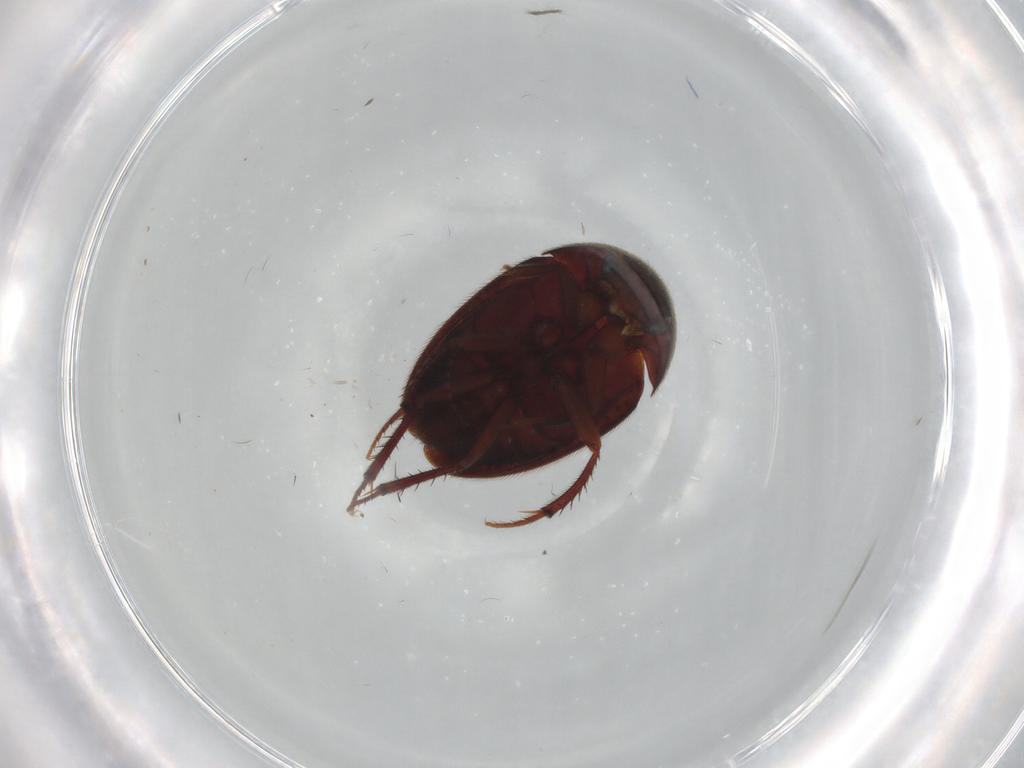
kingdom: Animalia
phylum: Arthropoda
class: Insecta
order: Coleoptera
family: Leiodidae
